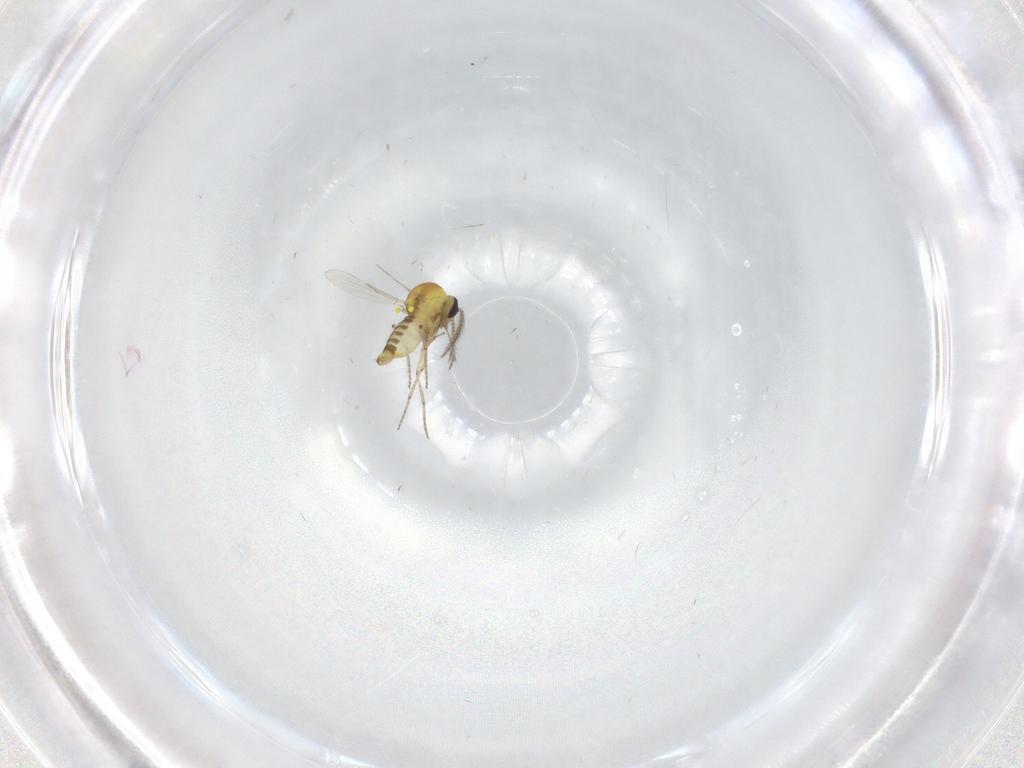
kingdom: Animalia
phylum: Arthropoda
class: Insecta
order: Diptera
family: Ceratopogonidae
